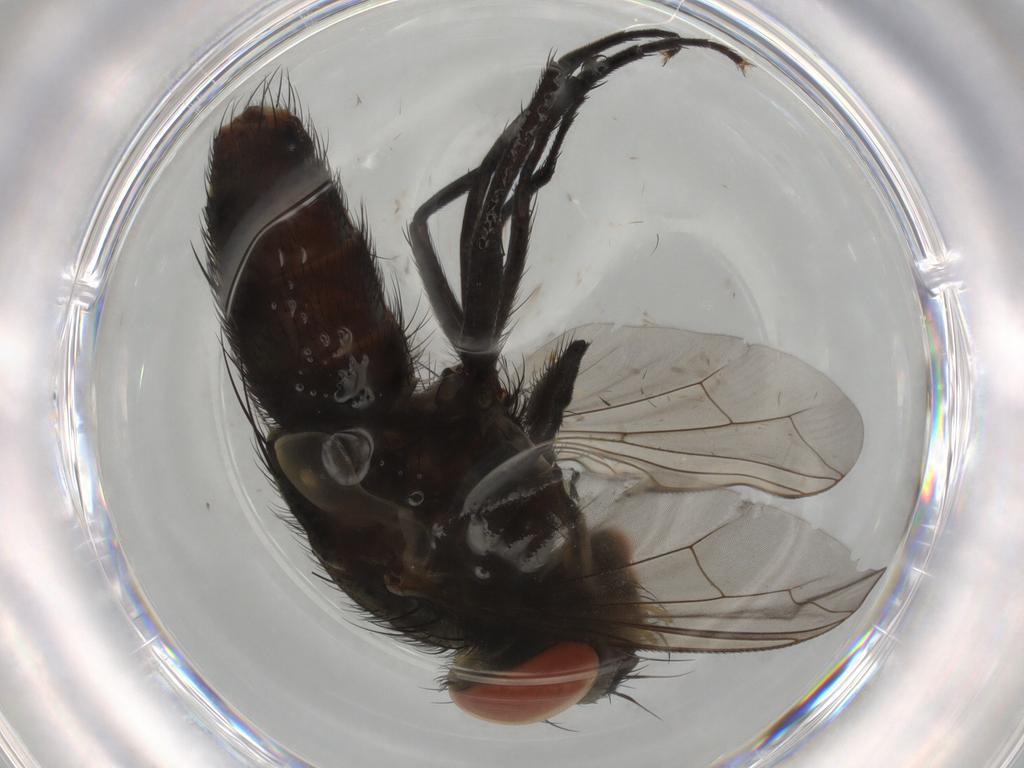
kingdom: Animalia
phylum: Arthropoda
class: Insecta
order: Diptera
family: Sarcophagidae
